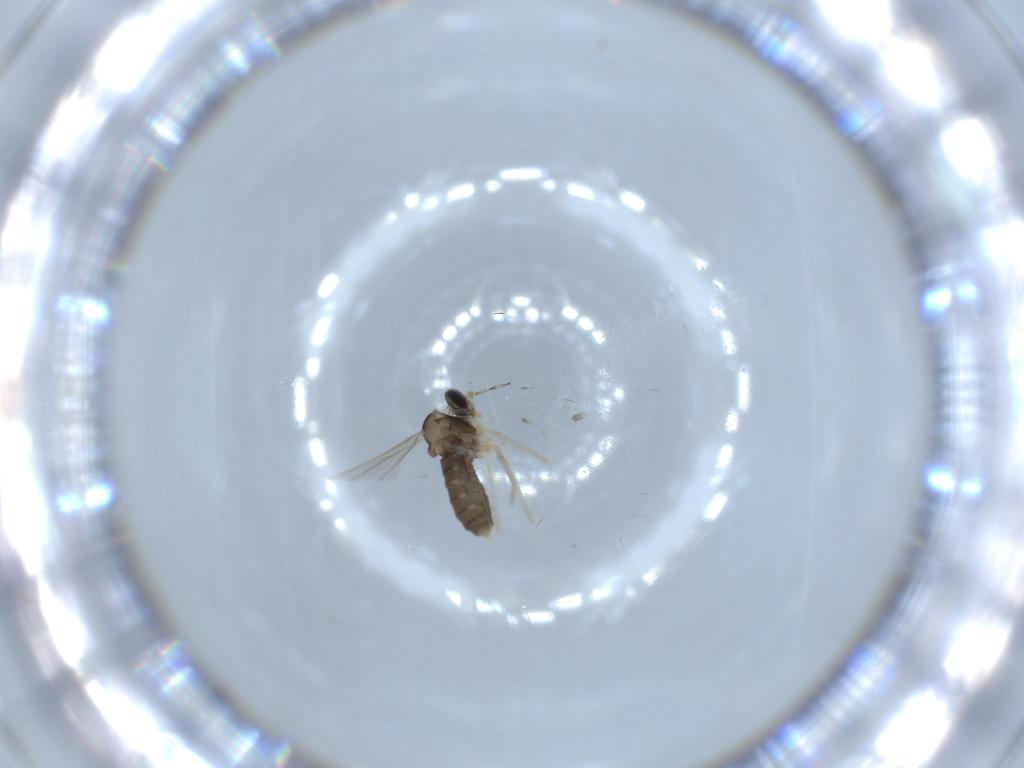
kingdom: Animalia
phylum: Arthropoda
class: Insecta
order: Diptera
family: Cecidomyiidae
